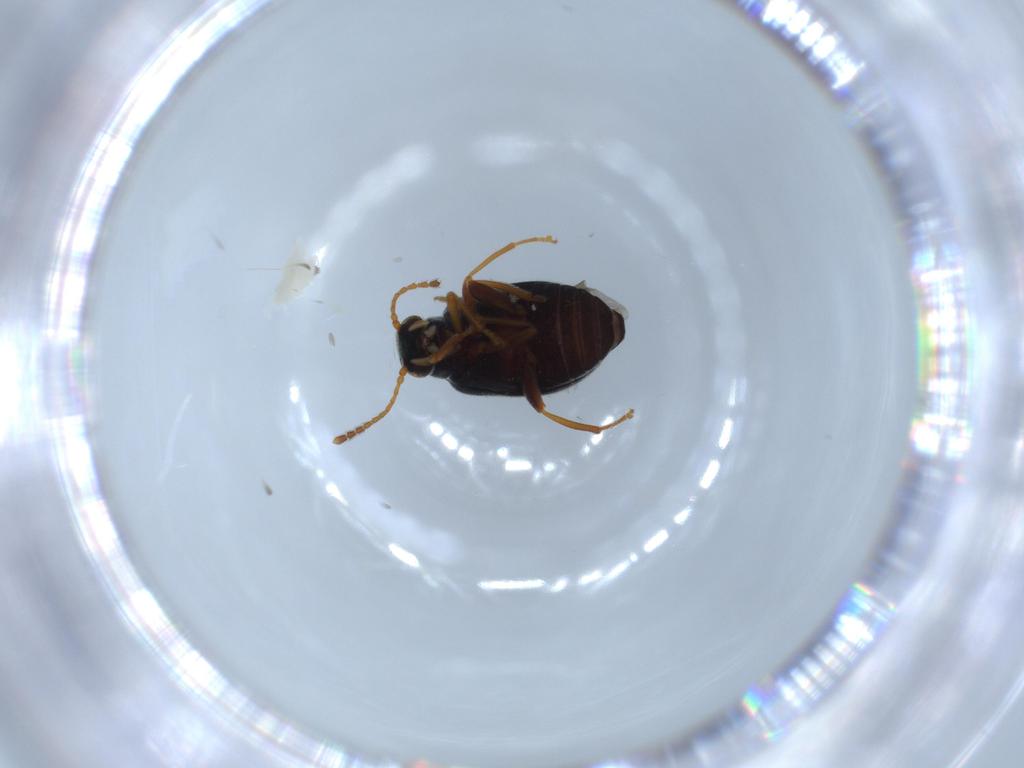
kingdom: Animalia
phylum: Arthropoda
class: Insecta
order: Coleoptera
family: Aderidae
